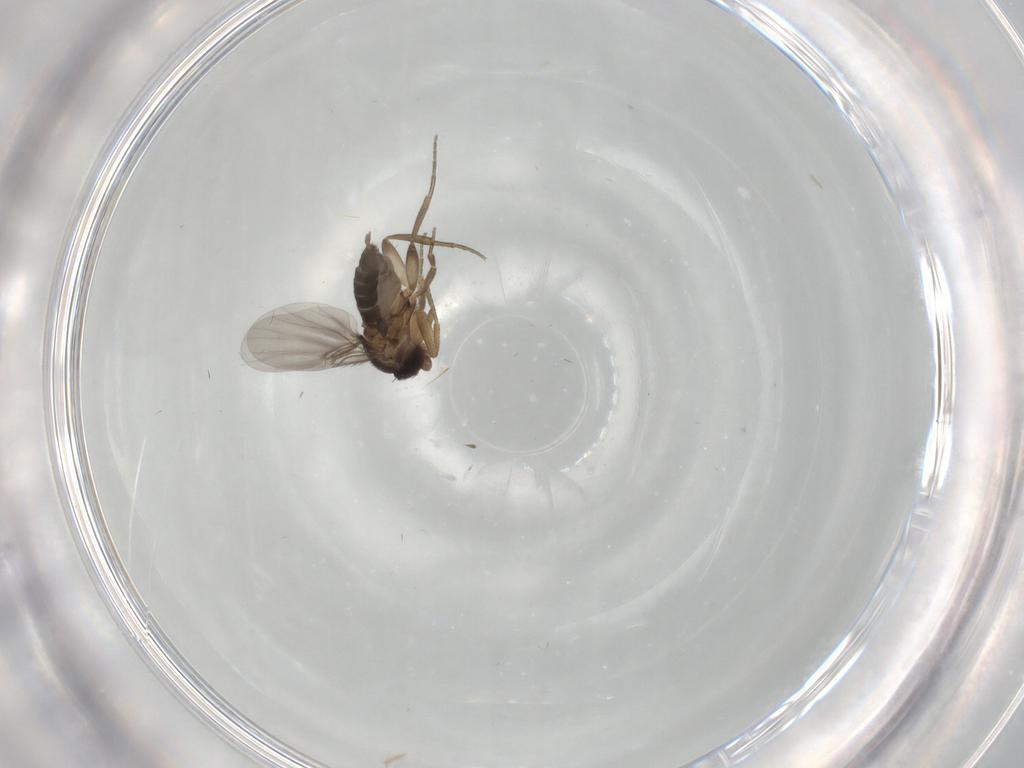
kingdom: Animalia
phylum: Arthropoda
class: Insecta
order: Diptera
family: Phoridae
